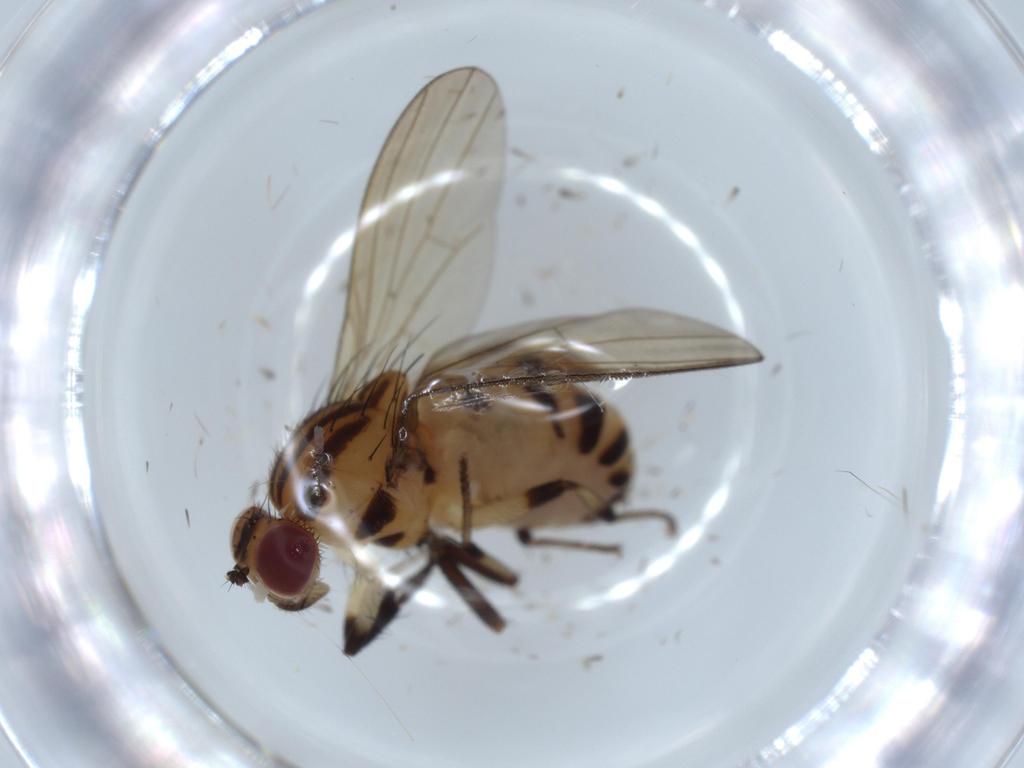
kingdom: Animalia
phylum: Arthropoda
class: Insecta
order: Diptera
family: Lauxaniidae
